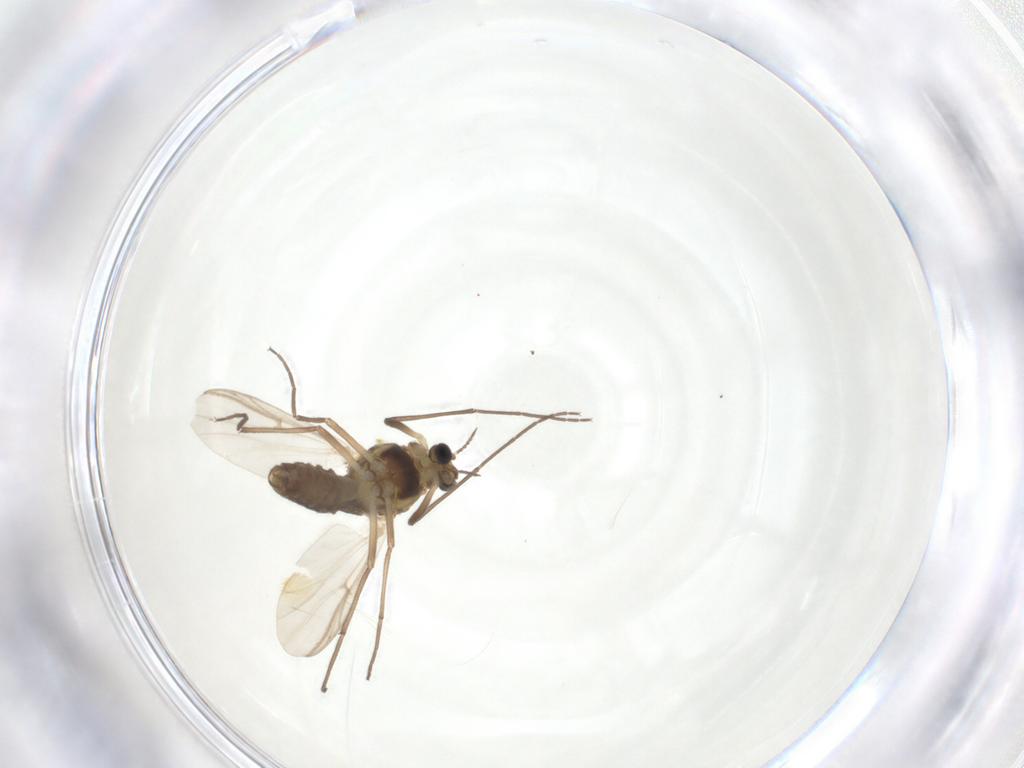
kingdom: Animalia
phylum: Arthropoda
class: Insecta
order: Diptera
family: Chironomidae
